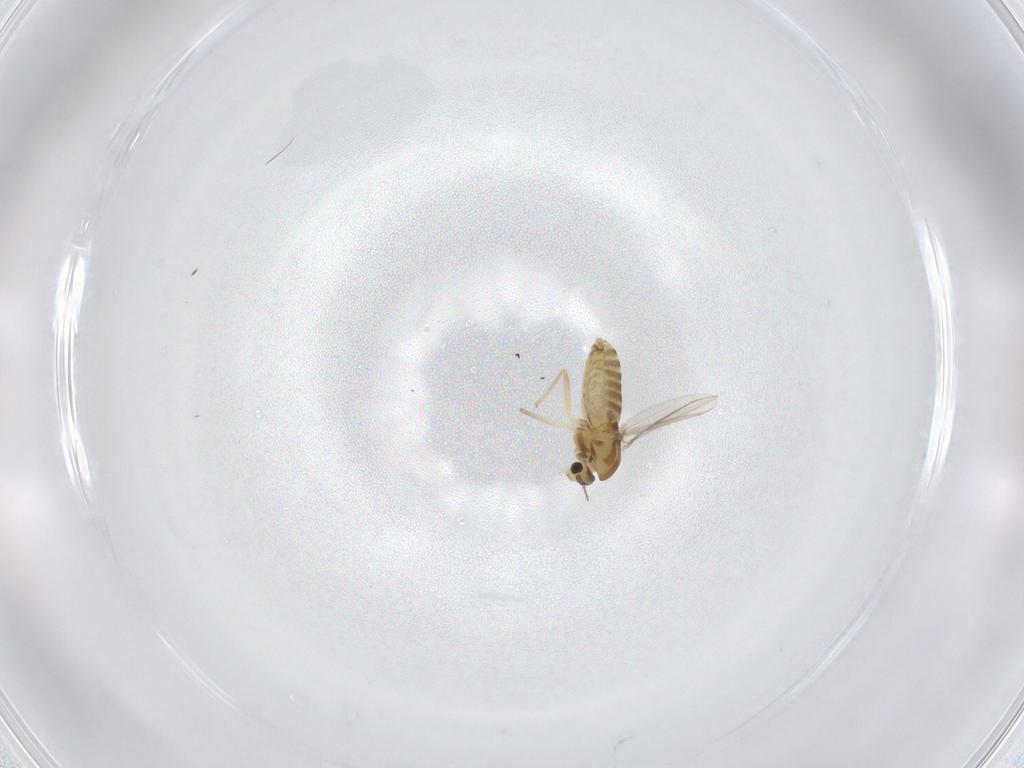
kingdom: Animalia
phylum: Arthropoda
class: Insecta
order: Diptera
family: Chironomidae
